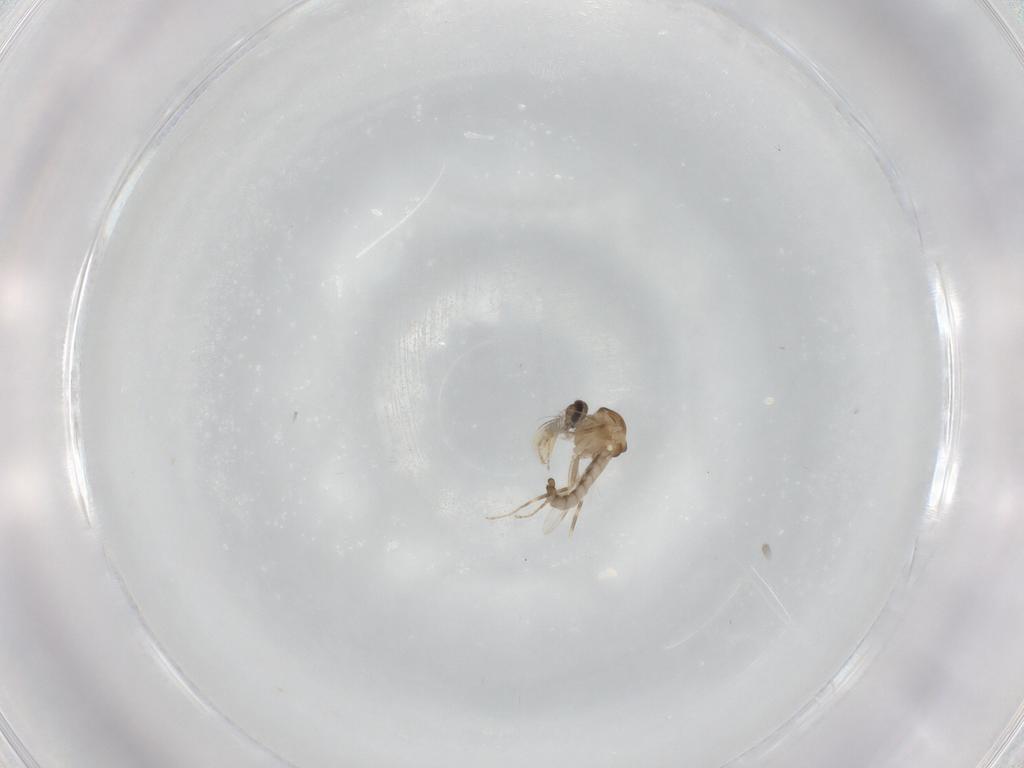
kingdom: Animalia
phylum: Arthropoda
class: Insecta
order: Diptera
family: Ceratopogonidae
